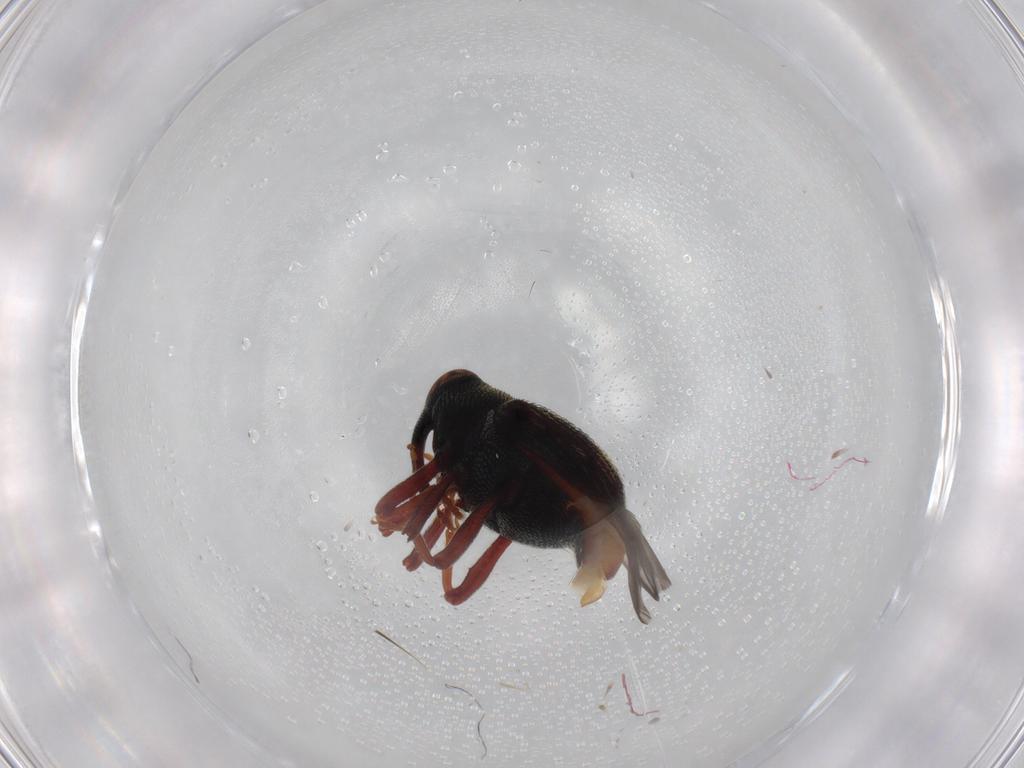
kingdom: Animalia
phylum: Arthropoda
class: Insecta
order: Coleoptera
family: Curculionidae
